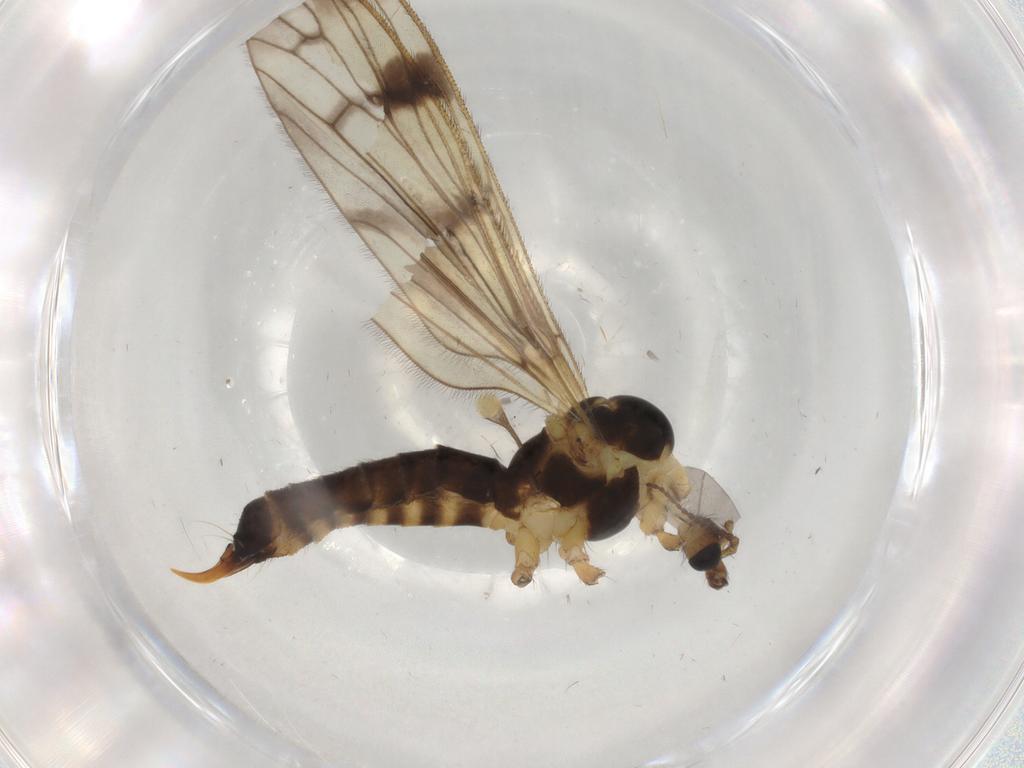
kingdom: Animalia
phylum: Arthropoda
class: Insecta
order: Diptera
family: Limoniidae
